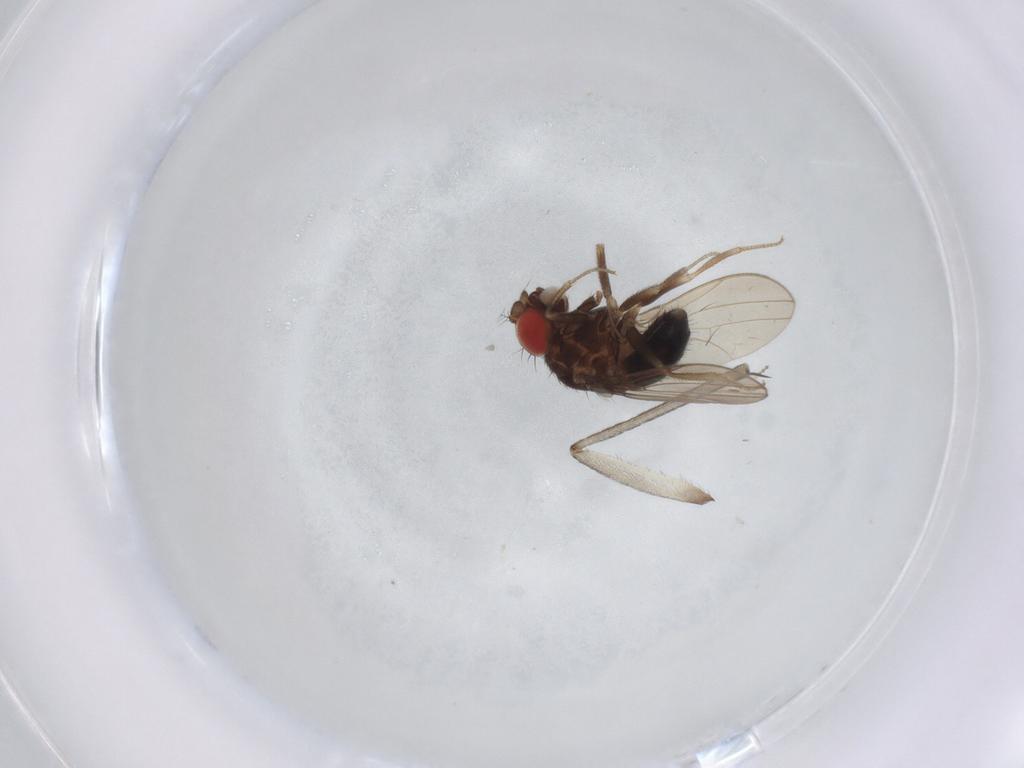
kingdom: Animalia
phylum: Arthropoda
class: Insecta
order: Diptera
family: Drosophilidae
